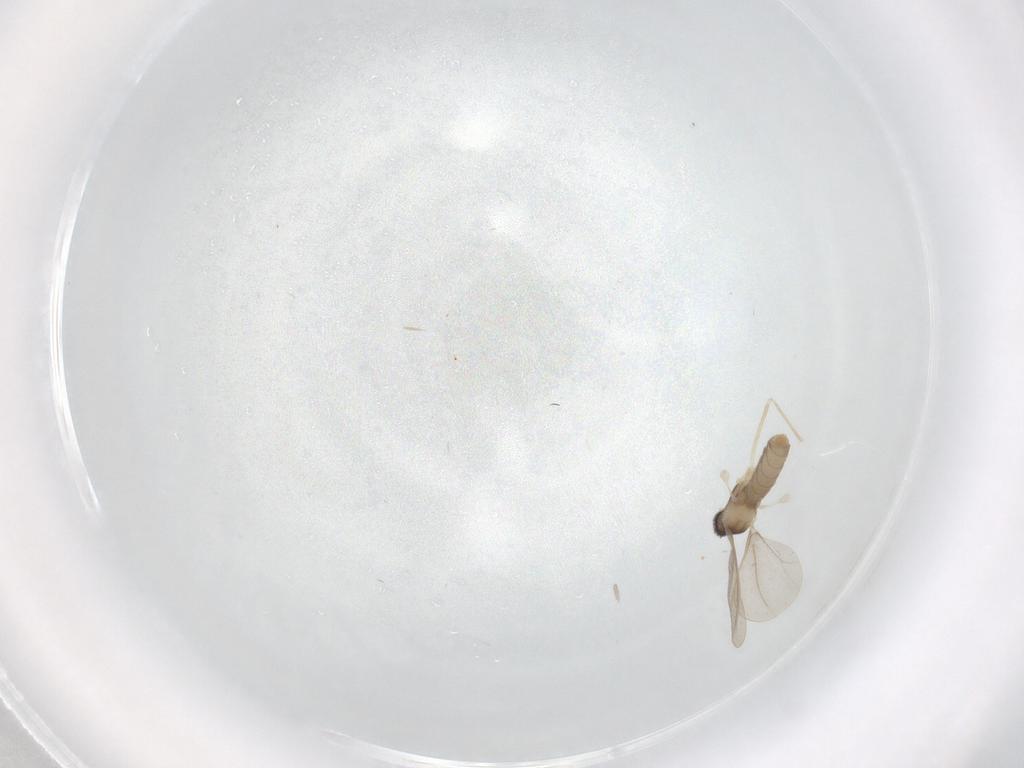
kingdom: Animalia
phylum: Arthropoda
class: Insecta
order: Diptera
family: Cecidomyiidae
